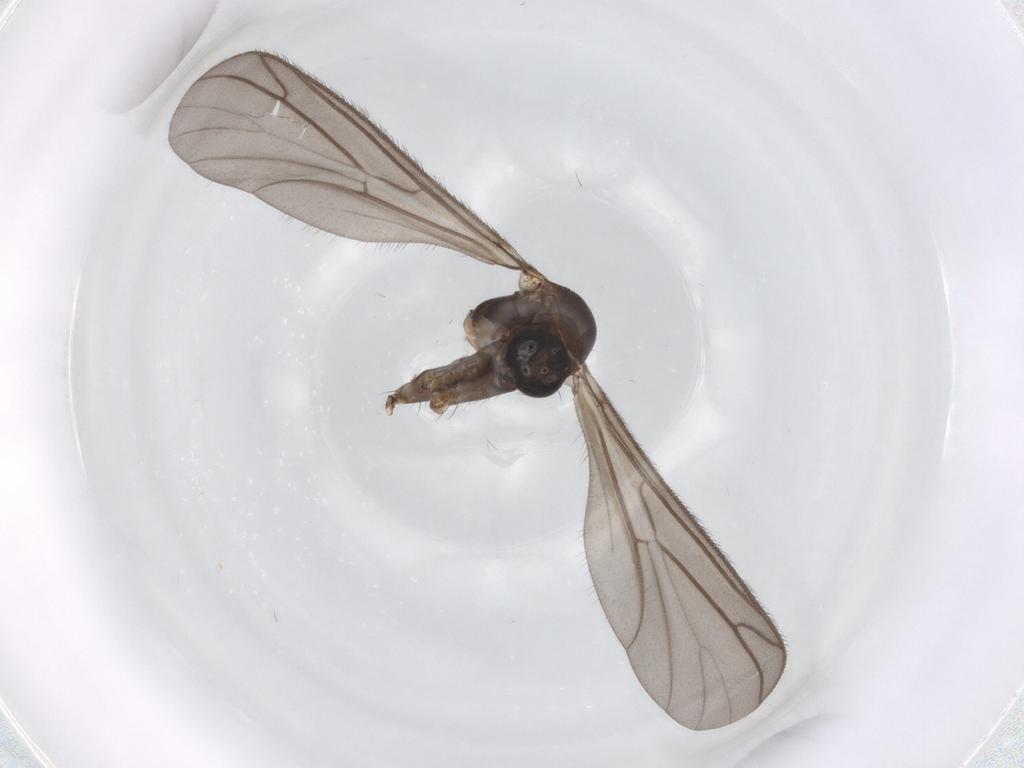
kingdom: Animalia
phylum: Arthropoda
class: Insecta
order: Diptera
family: Keroplatidae
